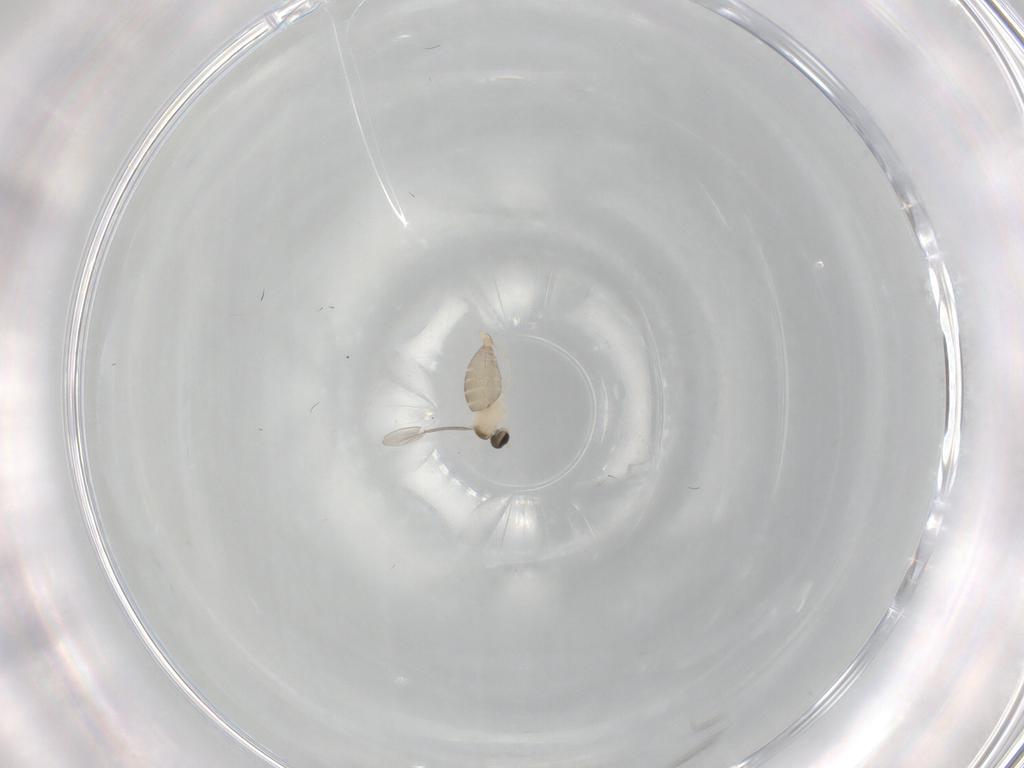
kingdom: Animalia
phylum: Arthropoda
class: Insecta
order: Diptera
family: Cecidomyiidae
